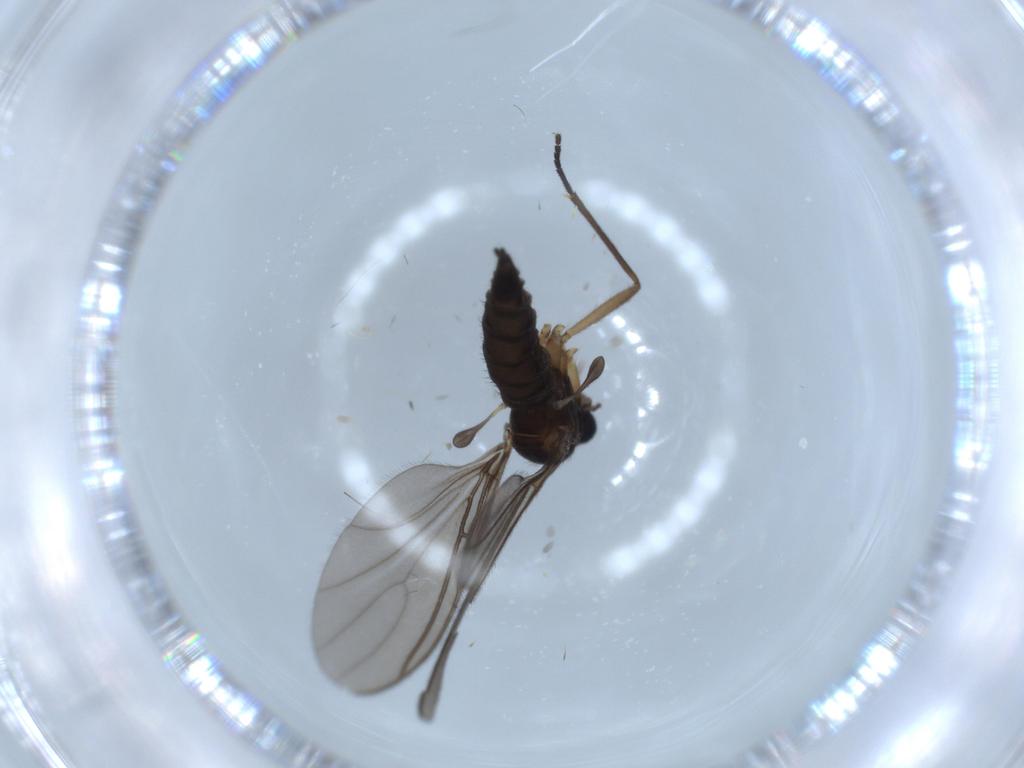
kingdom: Animalia
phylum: Arthropoda
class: Insecta
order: Diptera
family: Sciaridae
